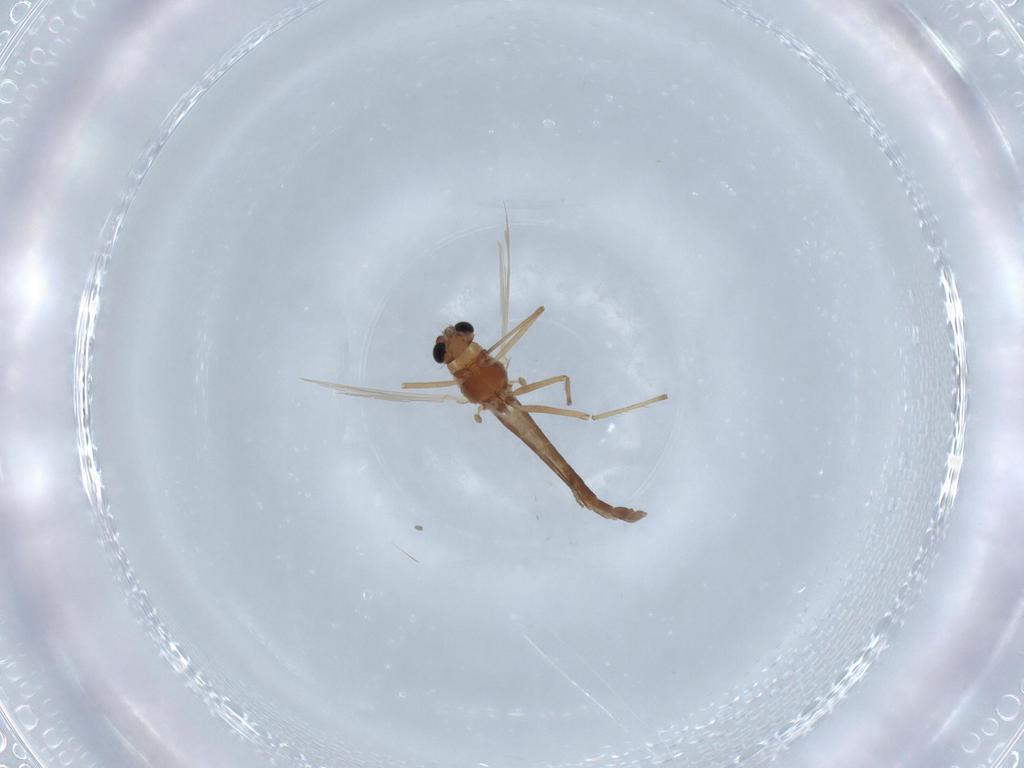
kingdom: Animalia
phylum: Arthropoda
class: Insecta
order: Diptera
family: Chironomidae
